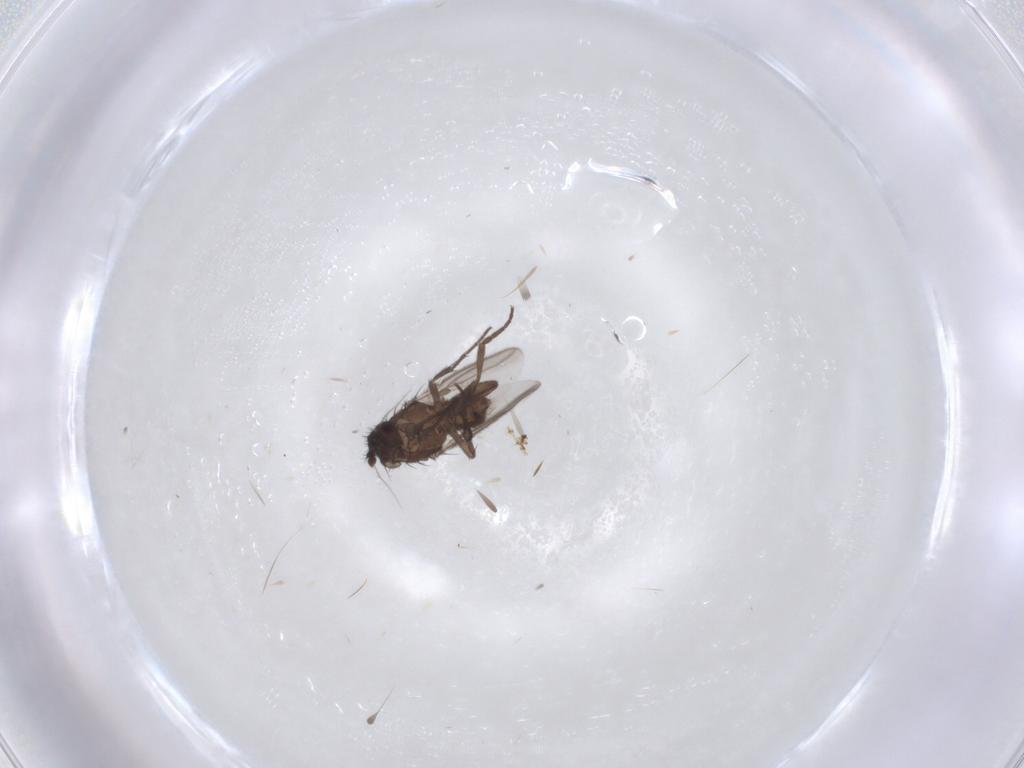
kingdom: Animalia
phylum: Arthropoda
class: Insecta
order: Diptera
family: Sphaeroceridae
